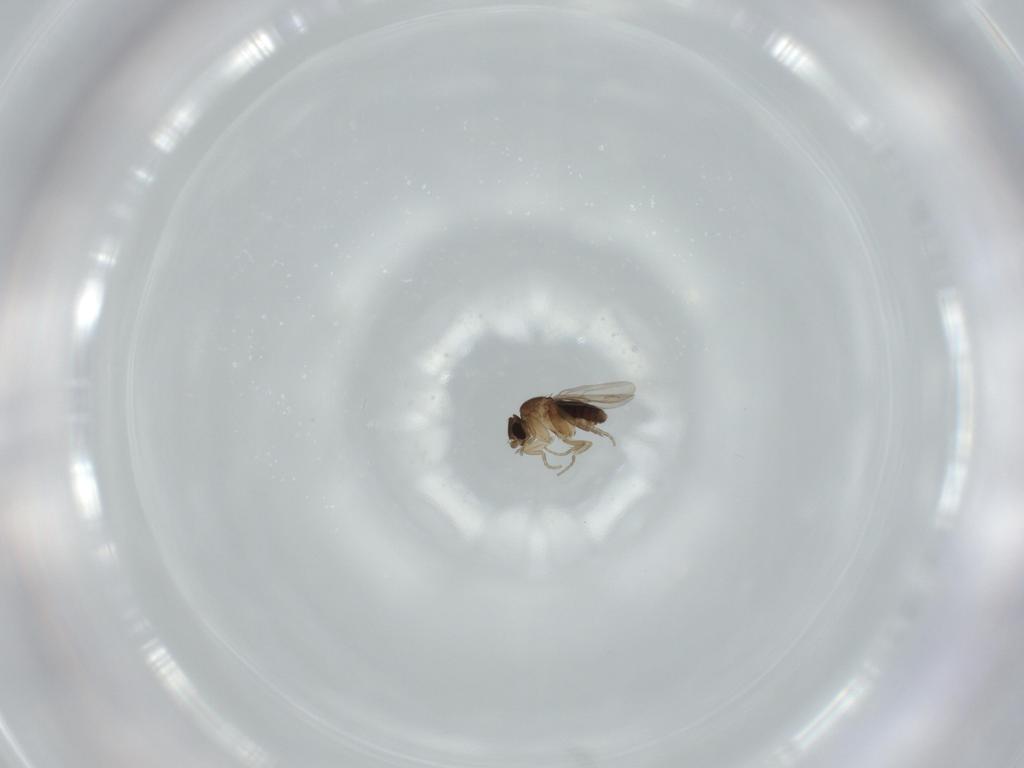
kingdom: Animalia
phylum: Arthropoda
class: Insecta
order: Diptera
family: Phoridae
